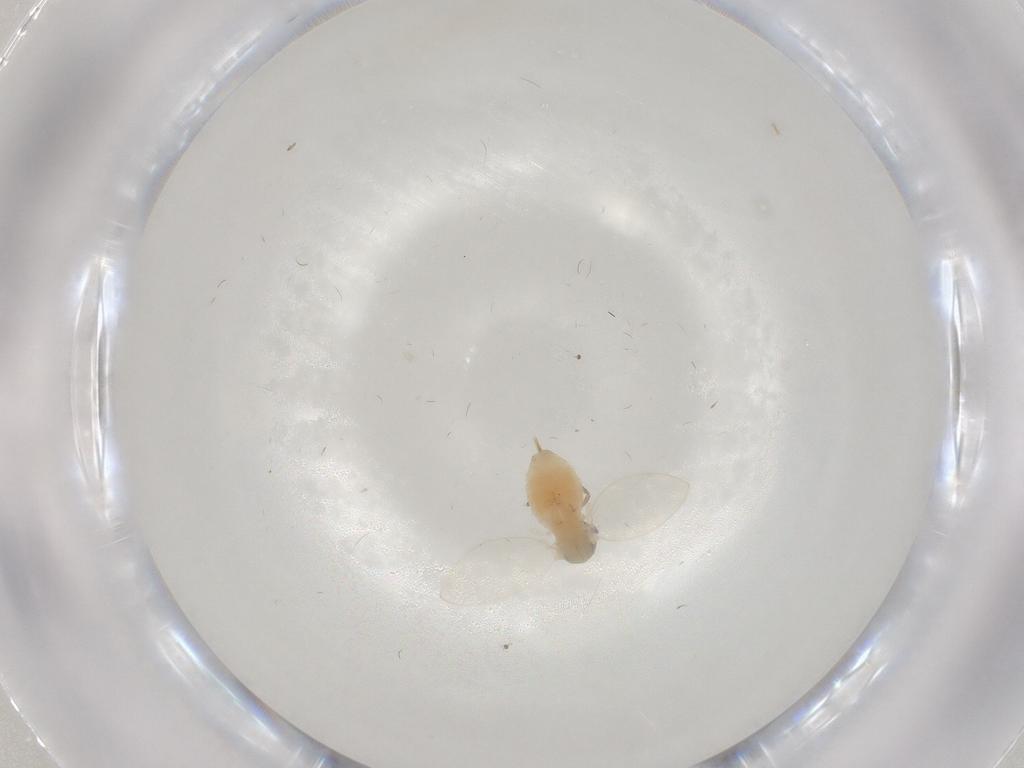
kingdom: Animalia
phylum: Arthropoda
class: Insecta
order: Diptera
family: Psychodidae
